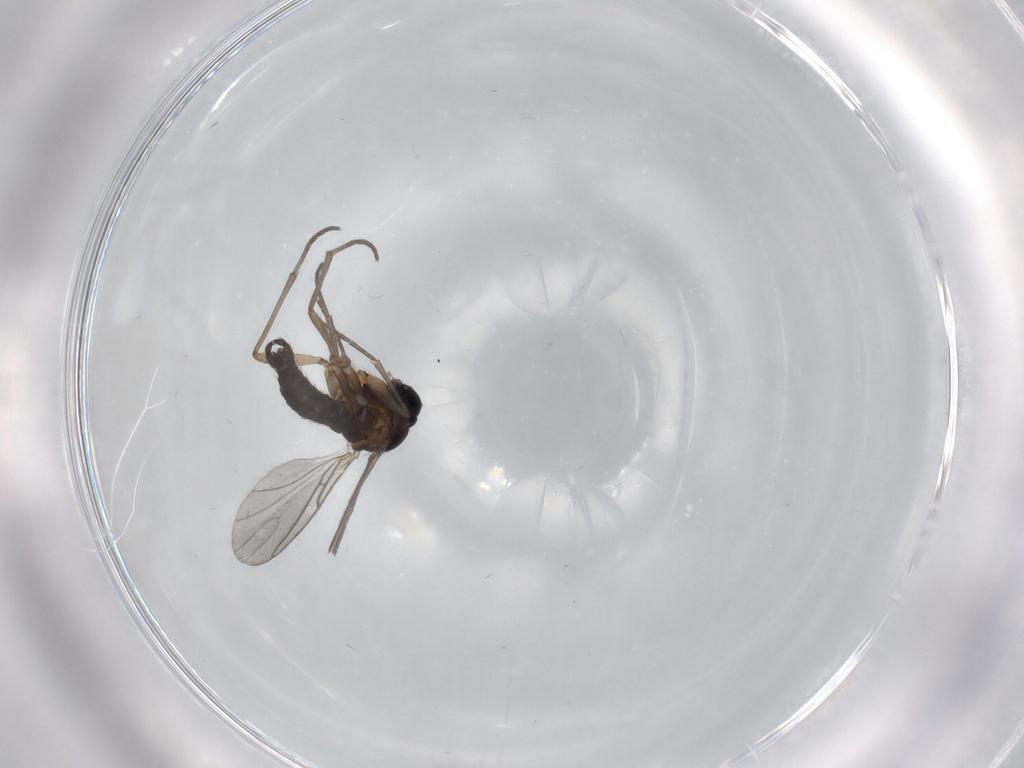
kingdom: Animalia
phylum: Arthropoda
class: Insecta
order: Diptera
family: Sciaridae
